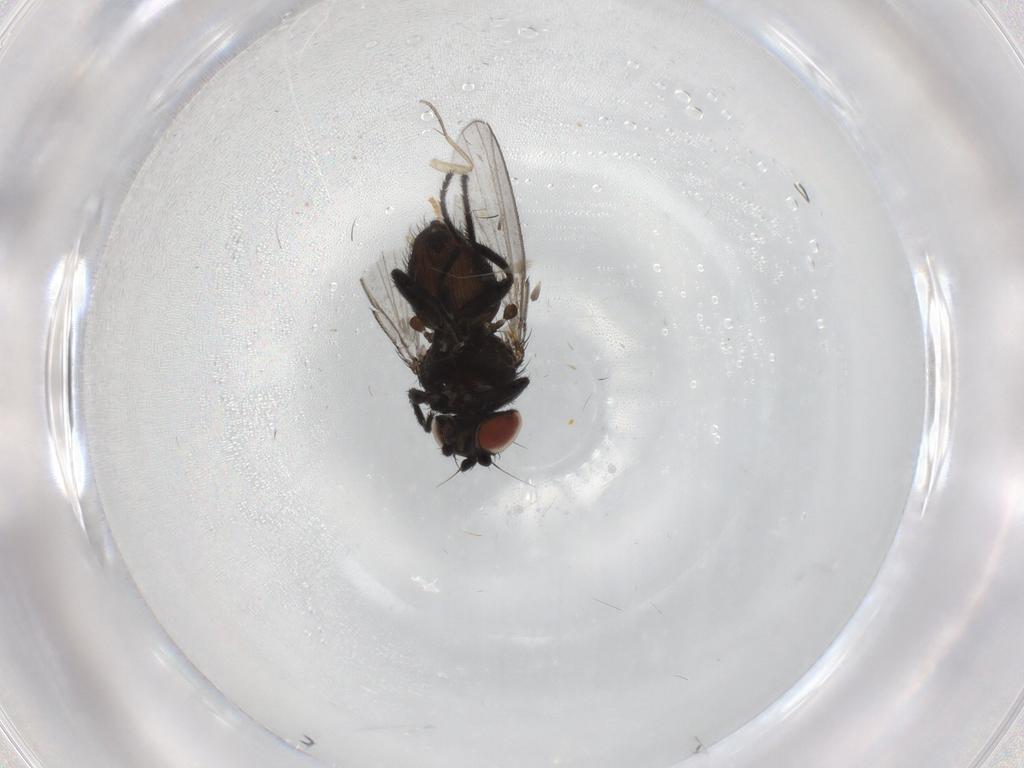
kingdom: Animalia
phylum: Arthropoda
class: Insecta
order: Diptera
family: Milichiidae
